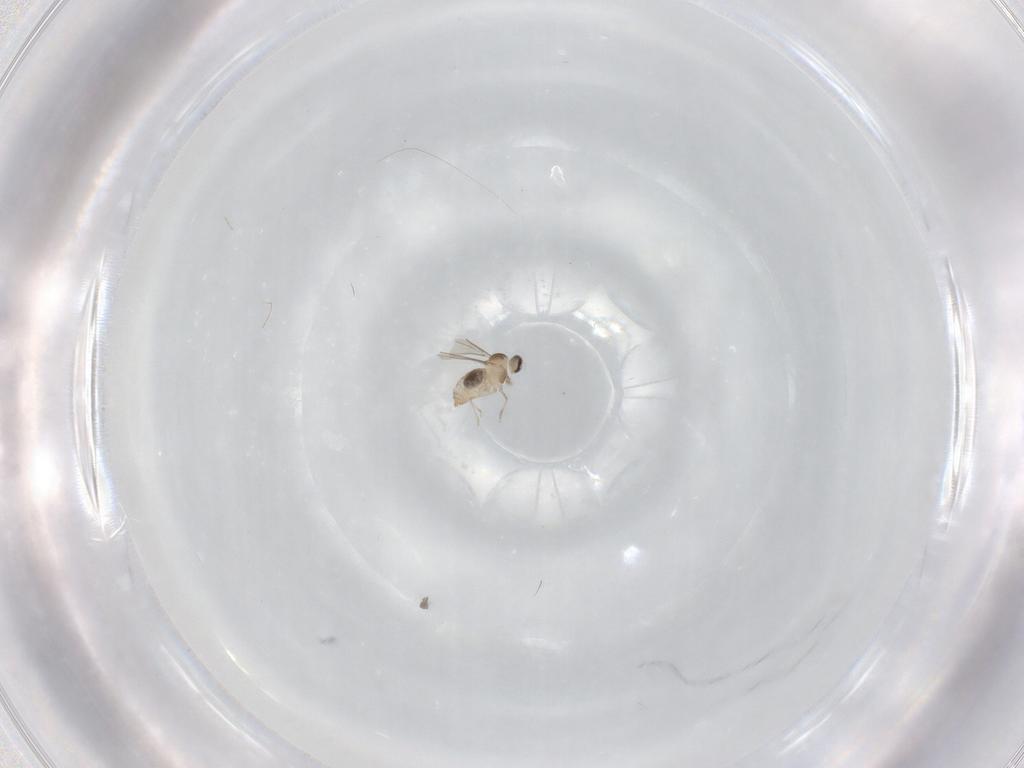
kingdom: Animalia
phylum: Arthropoda
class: Insecta
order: Diptera
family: Cecidomyiidae
